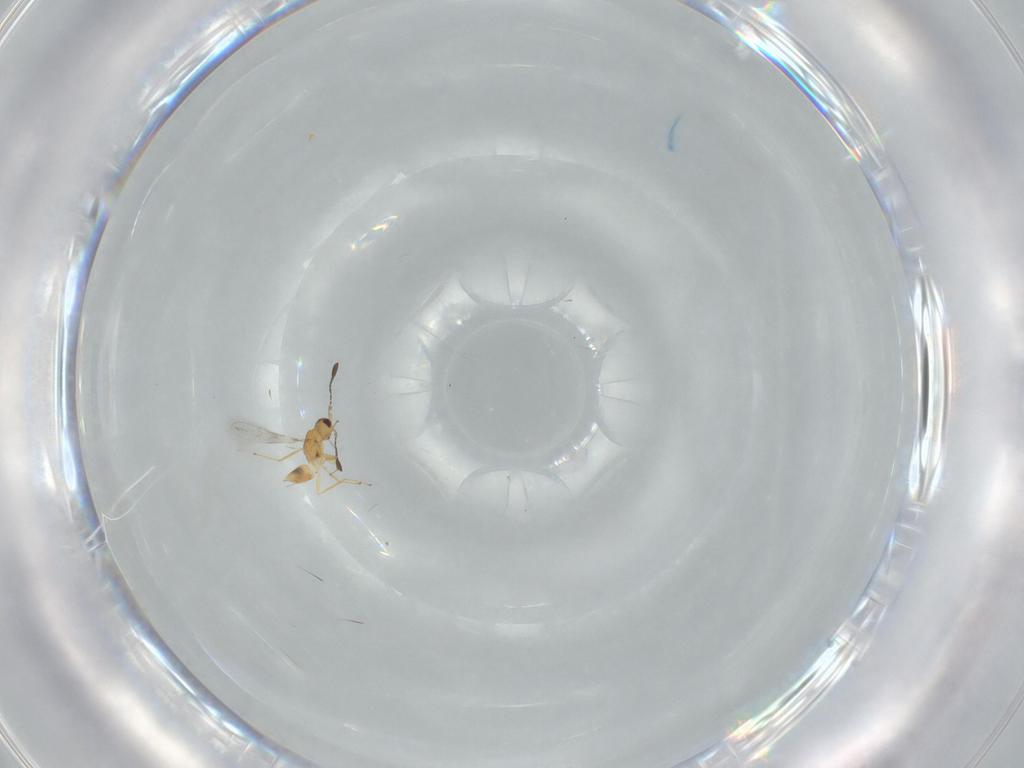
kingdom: Animalia
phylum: Arthropoda
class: Insecta
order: Hymenoptera
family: Mymaridae
